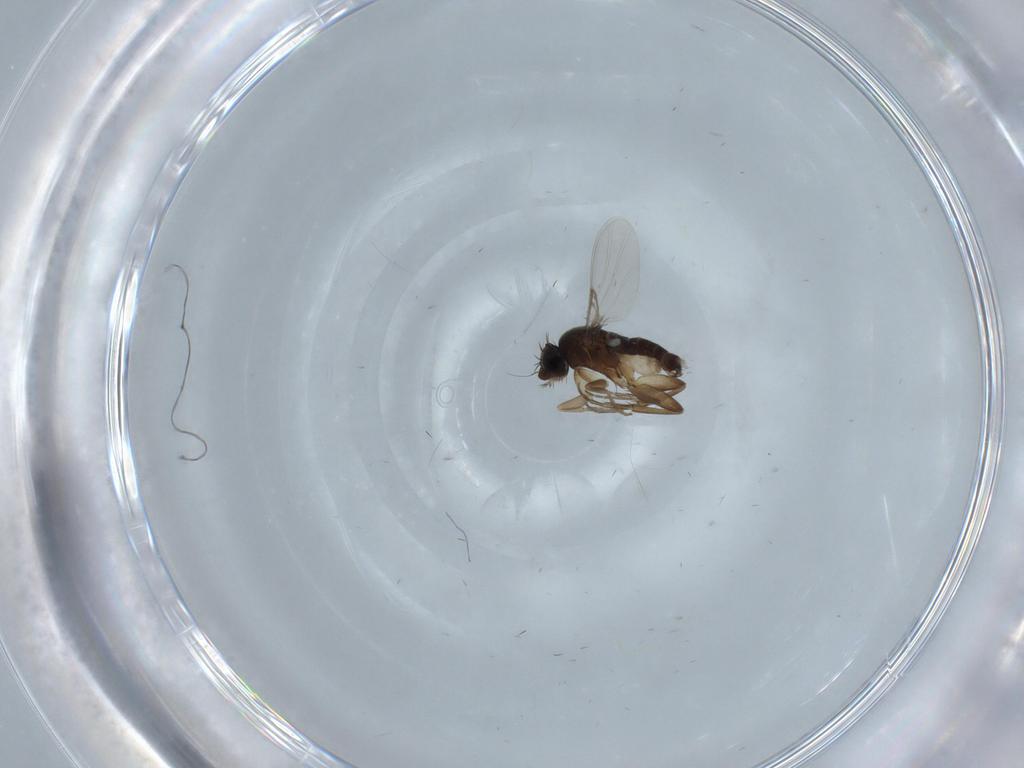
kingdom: Animalia
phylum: Arthropoda
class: Insecta
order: Diptera
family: Phoridae
